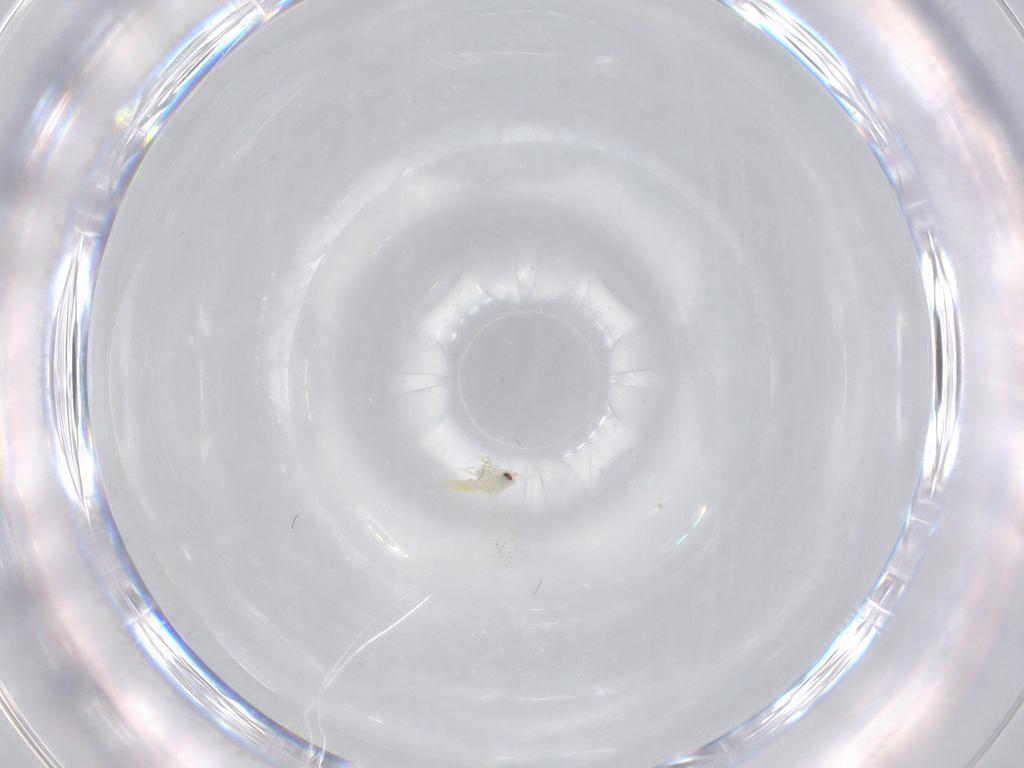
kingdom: Animalia
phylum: Arthropoda
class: Insecta
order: Hemiptera
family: Aleyrodidae
